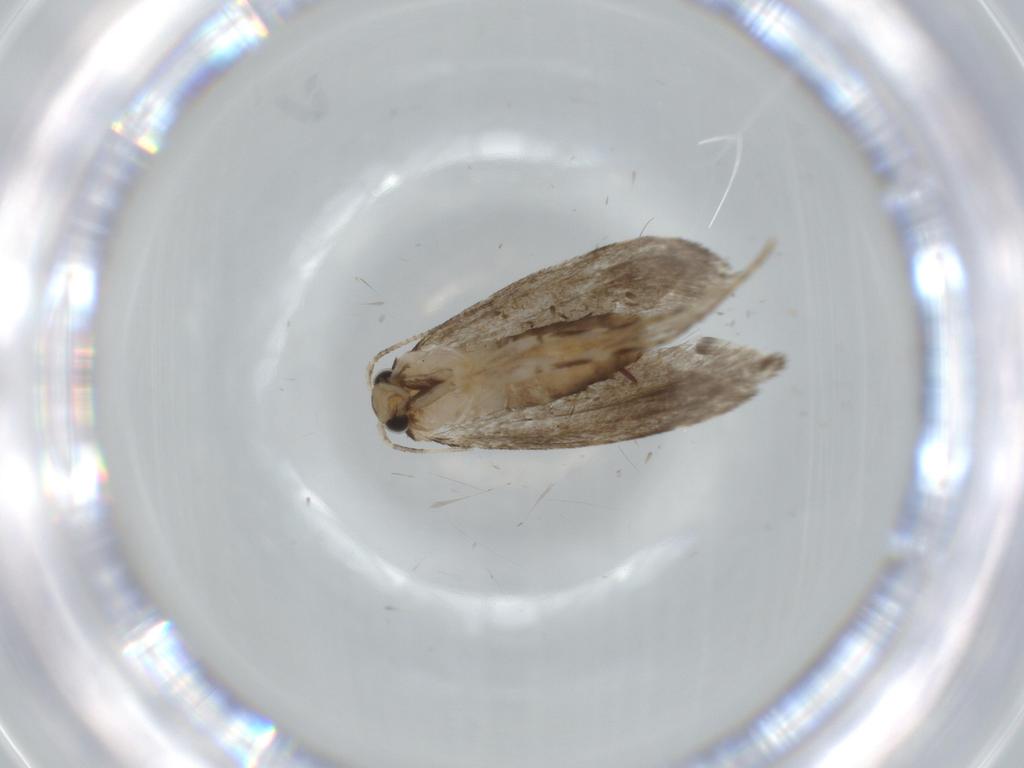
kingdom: Animalia
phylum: Arthropoda
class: Insecta
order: Lepidoptera
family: Tineidae
